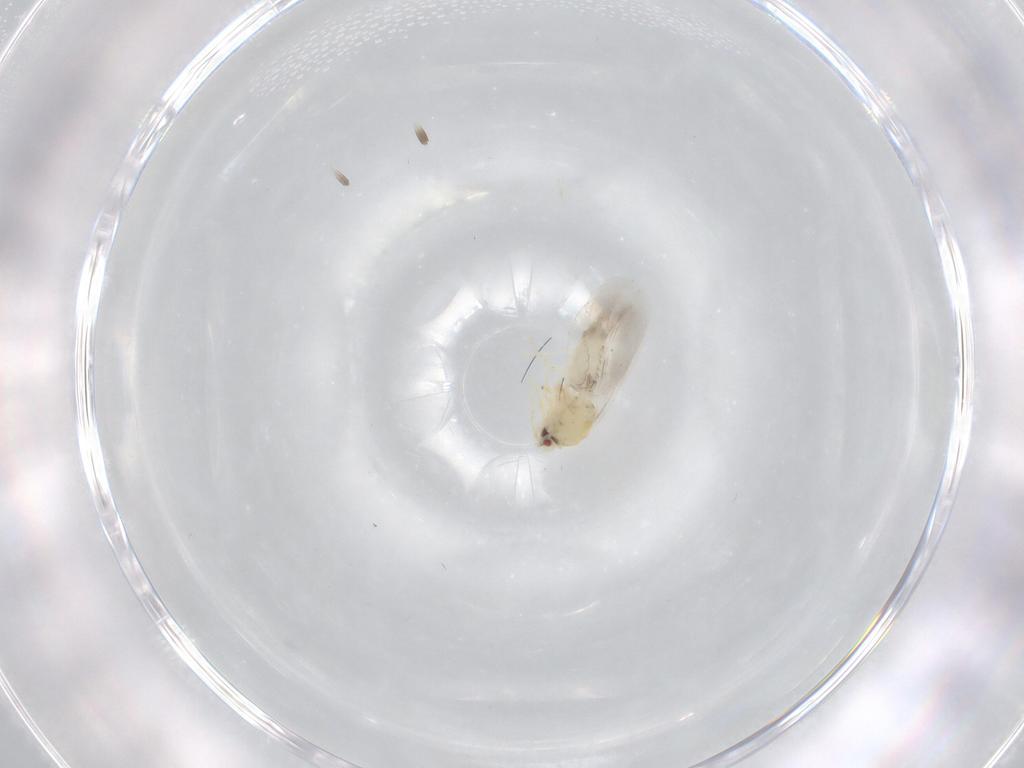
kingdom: Animalia
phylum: Arthropoda
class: Insecta
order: Hemiptera
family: Aleyrodidae
